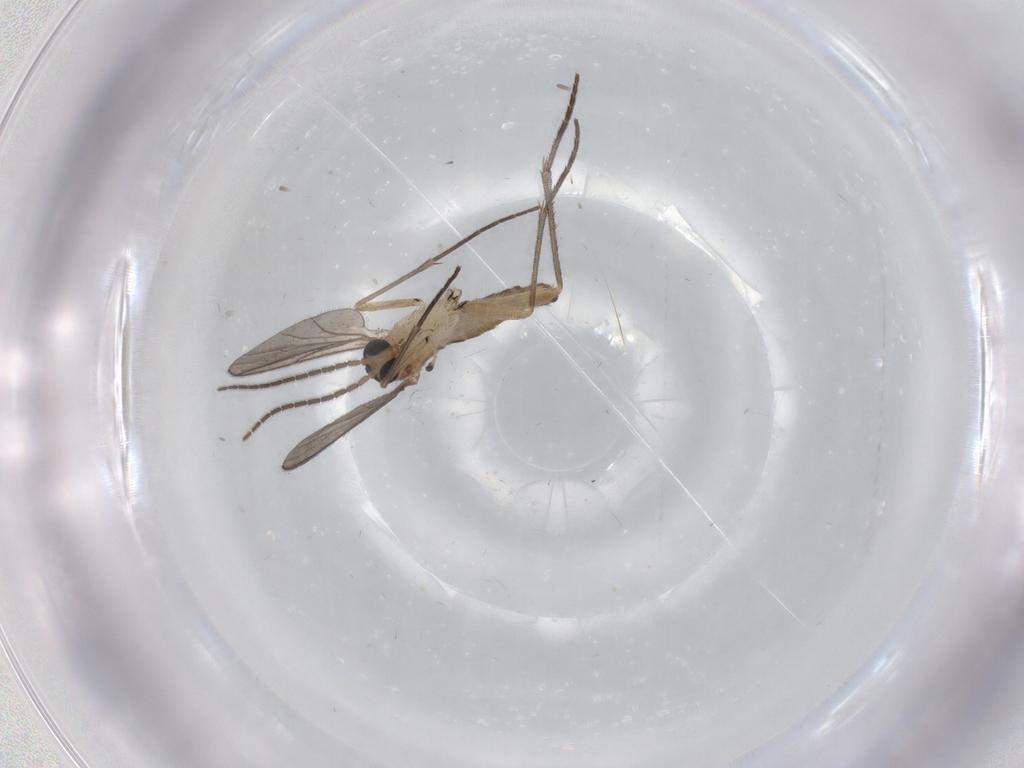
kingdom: Animalia
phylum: Arthropoda
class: Insecta
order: Diptera
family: Sciaridae
